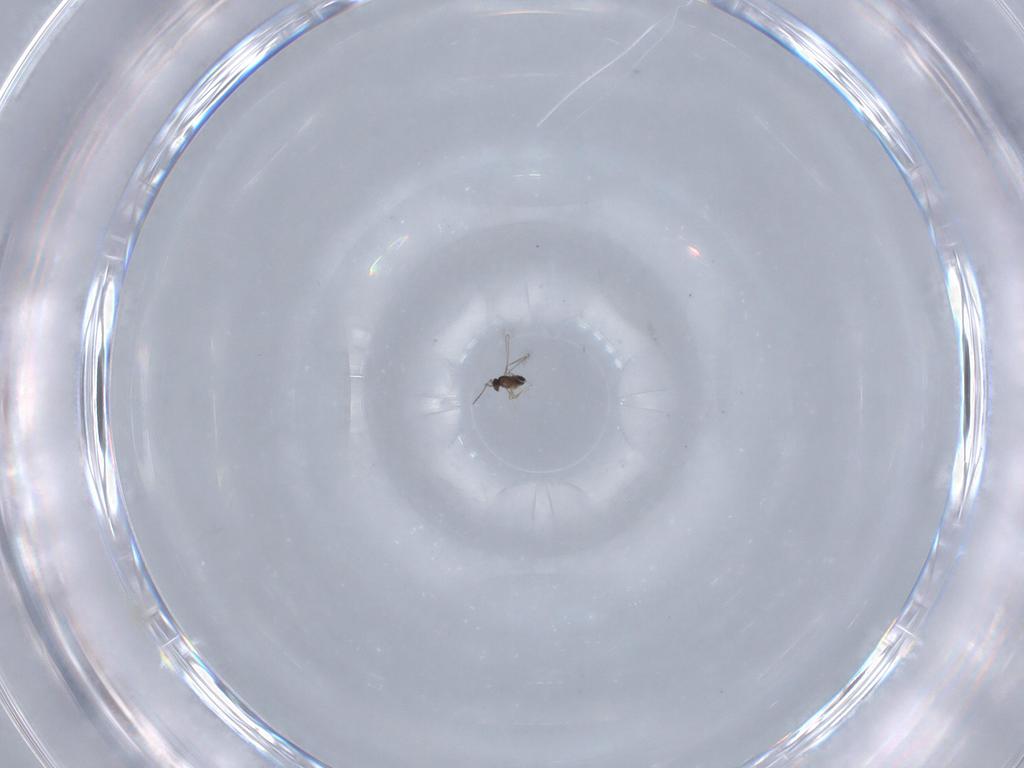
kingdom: Animalia
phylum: Arthropoda
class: Insecta
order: Hymenoptera
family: Mymaridae
